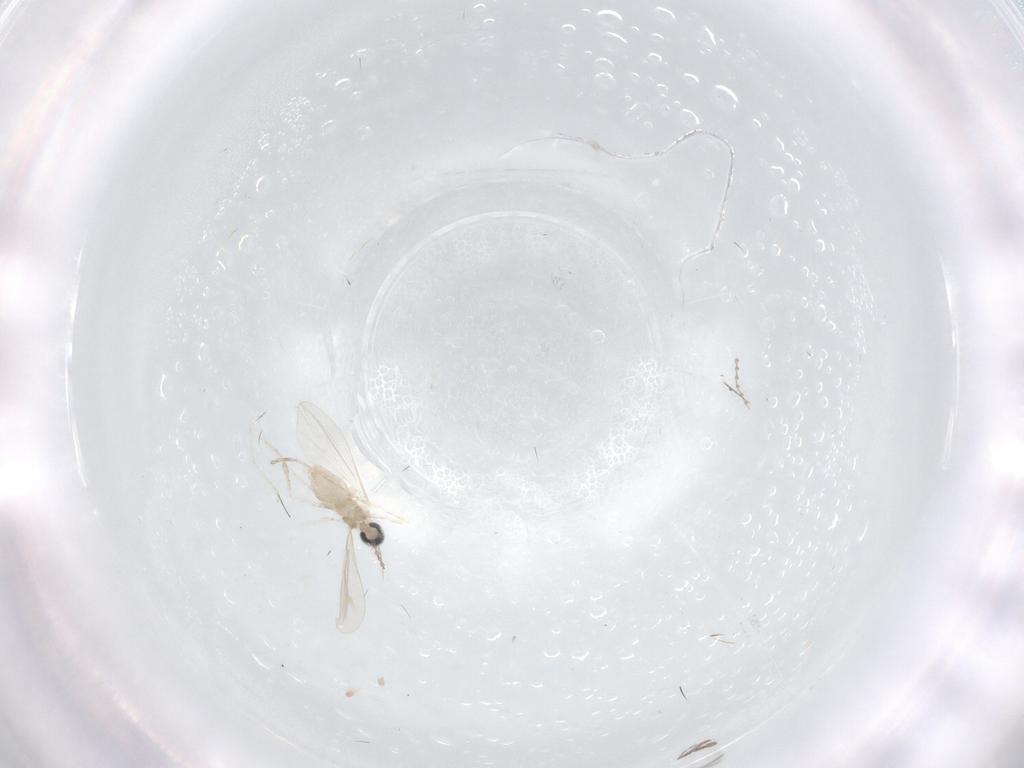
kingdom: Animalia
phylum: Arthropoda
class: Insecta
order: Diptera
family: Cecidomyiidae
